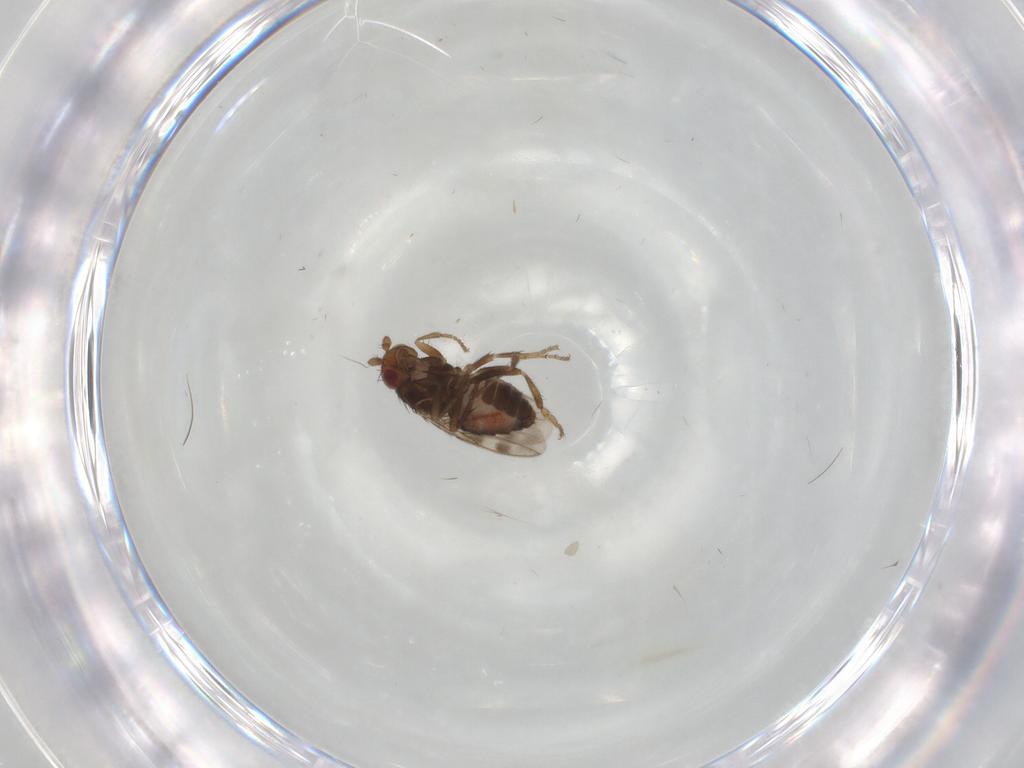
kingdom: Animalia
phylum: Arthropoda
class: Insecta
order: Diptera
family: Sphaeroceridae
